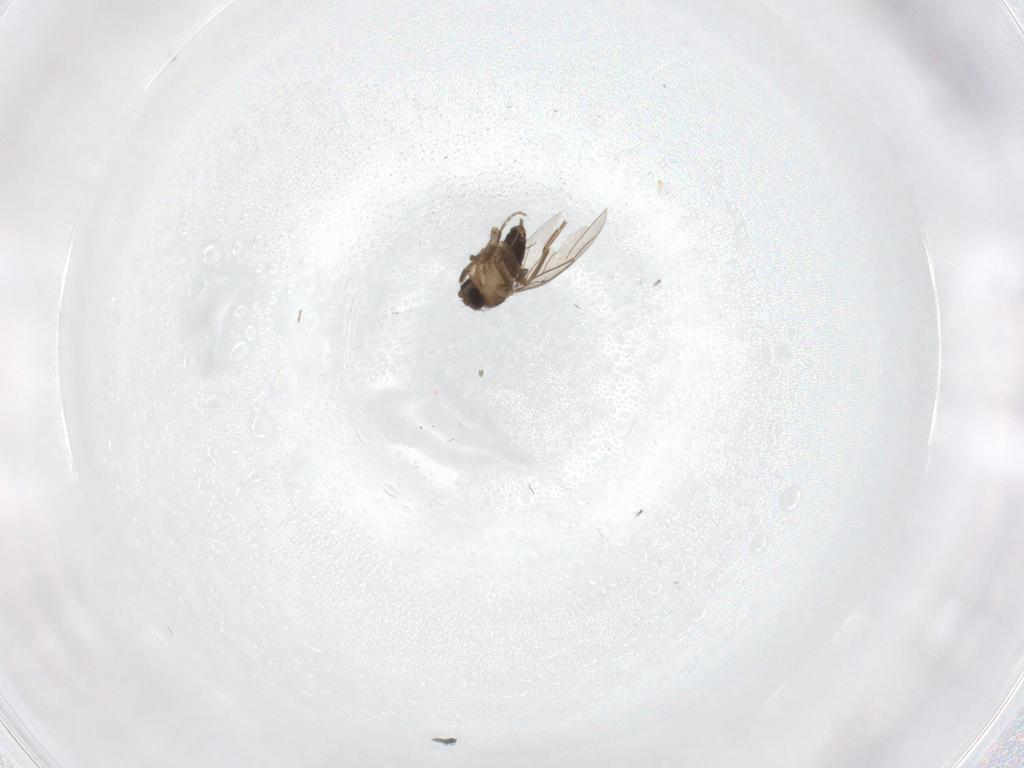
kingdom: Animalia
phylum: Arthropoda
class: Insecta
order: Diptera
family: Phoridae
